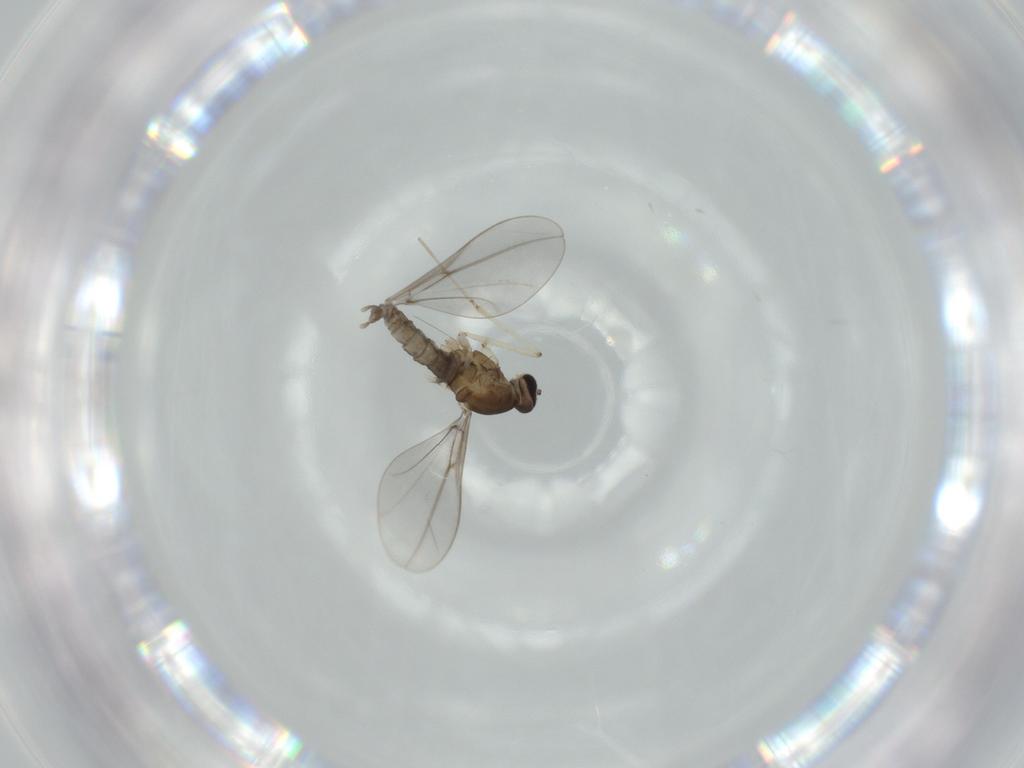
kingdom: Animalia
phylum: Arthropoda
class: Insecta
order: Diptera
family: Cecidomyiidae
